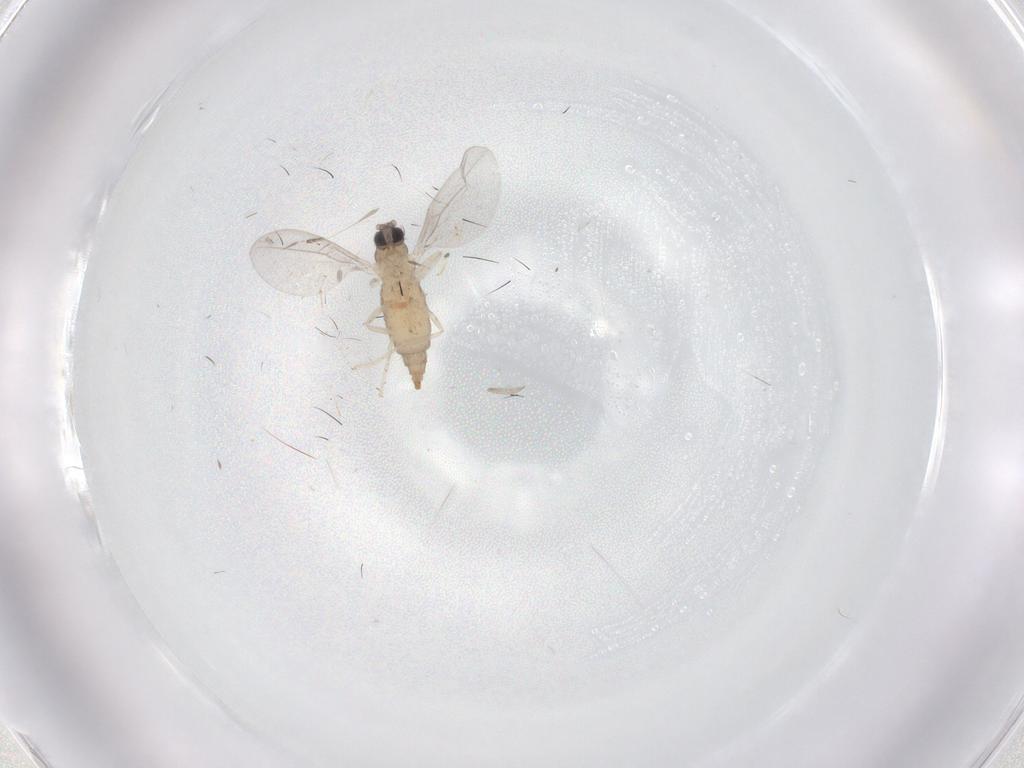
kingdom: Animalia
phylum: Arthropoda
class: Insecta
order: Diptera
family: Cecidomyiidae
